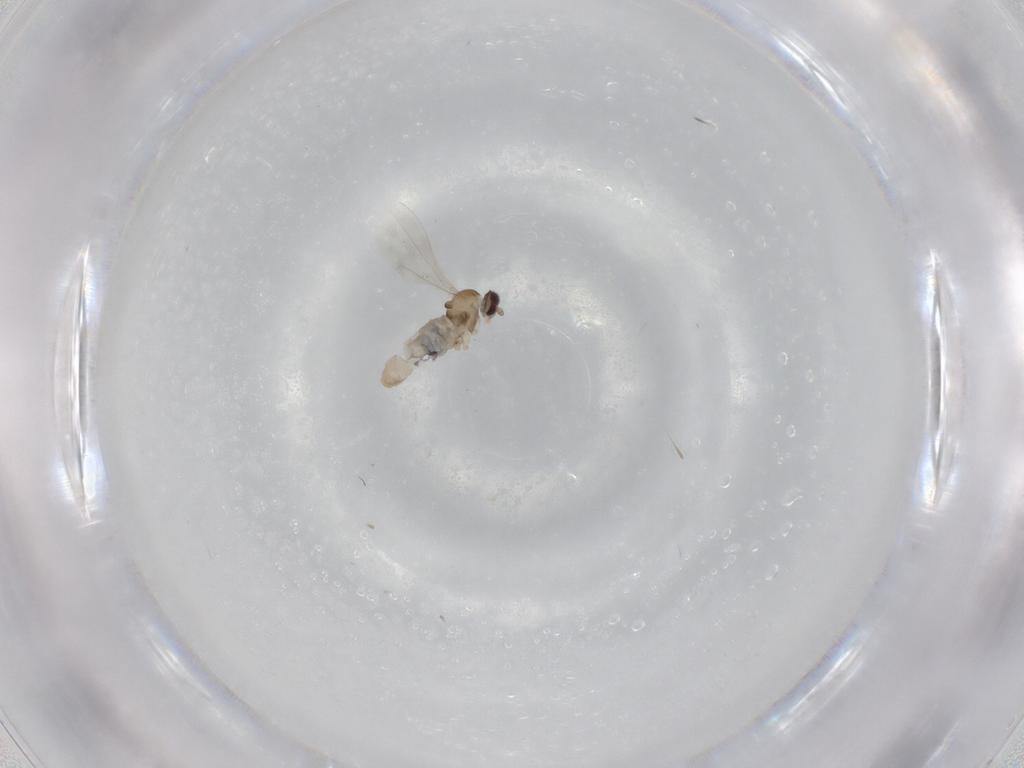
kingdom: Animalia
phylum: Arthropoda
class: Insecta
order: Diptera
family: Cecidomyiidae
